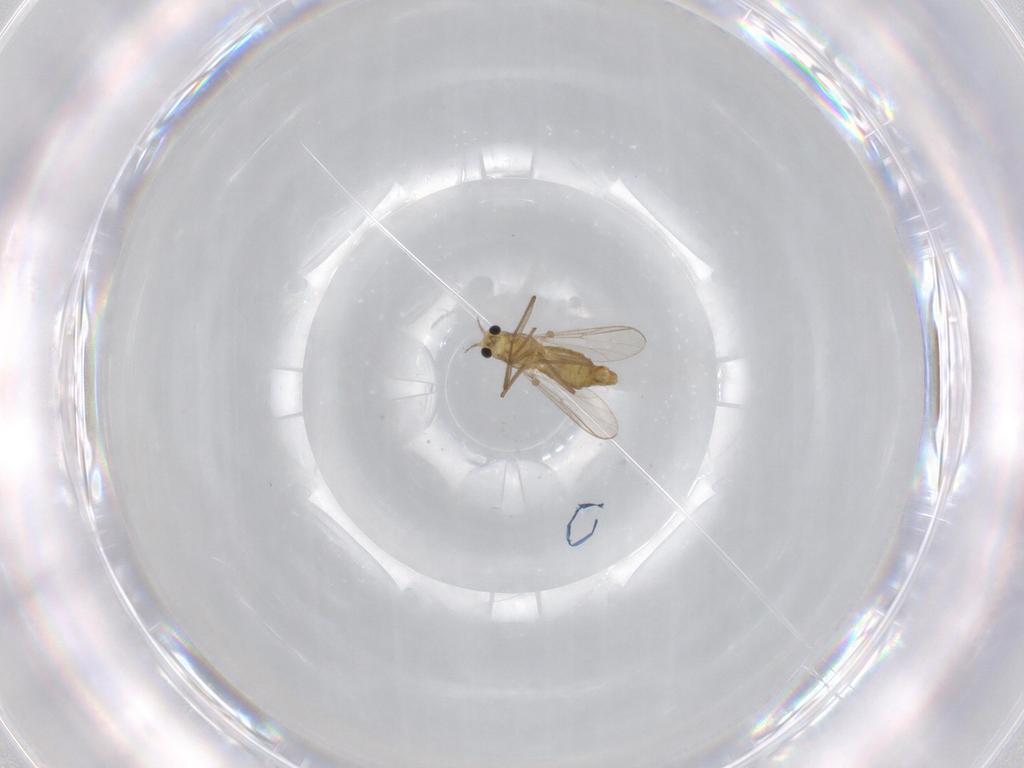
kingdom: Animalia
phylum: Arthropoda
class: Insecta
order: Diptera
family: Chironomidae
